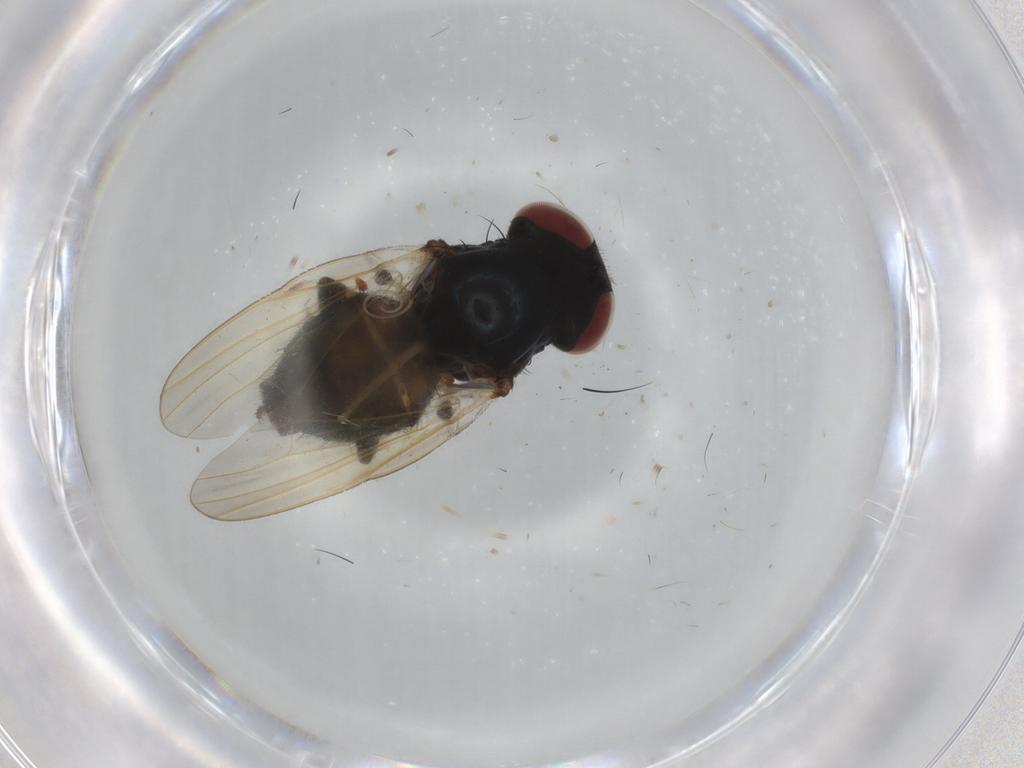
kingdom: Animalia
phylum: Arthropoda
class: Insecta
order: Diptera
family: Lonchaeidae
